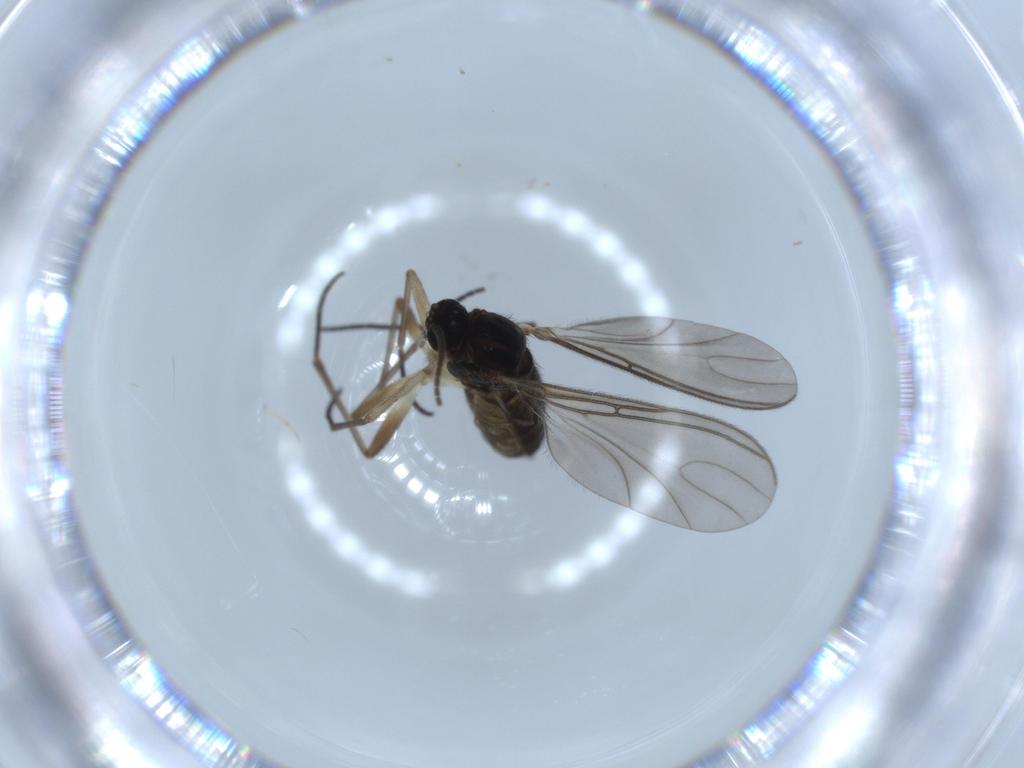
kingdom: Animalia
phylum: Arthropoda
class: Insecta
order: Diptera
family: Sciaridae
